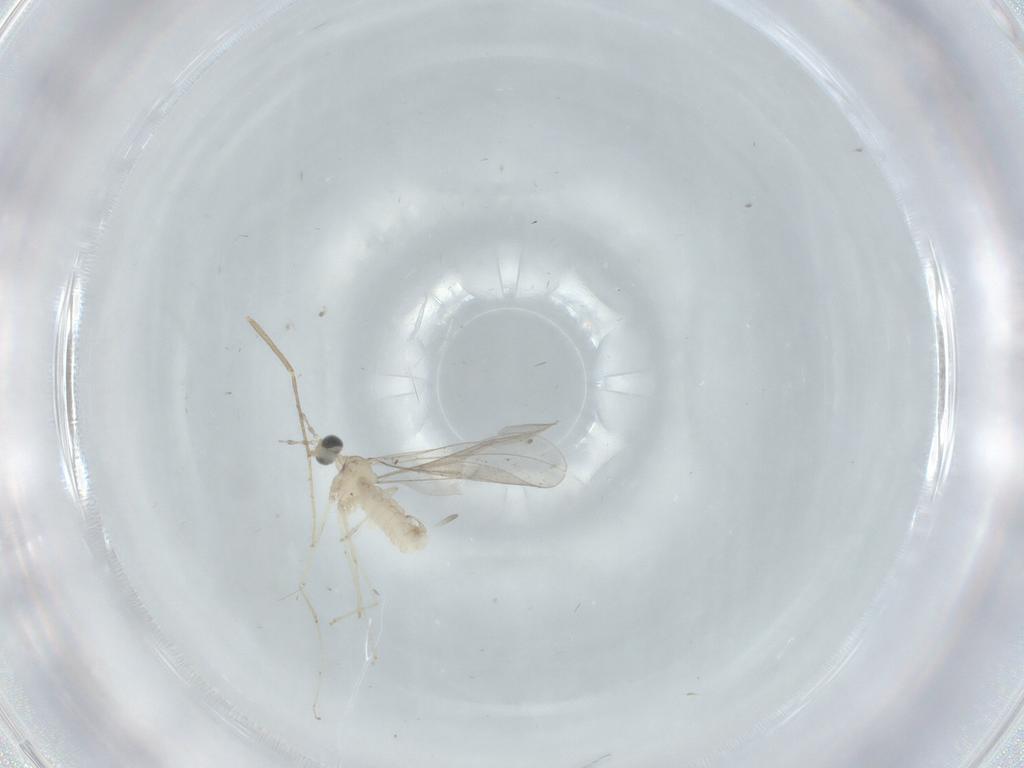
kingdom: Animalia
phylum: Arthropoda
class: Insecta
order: Diptera
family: Cecidomyiidae
